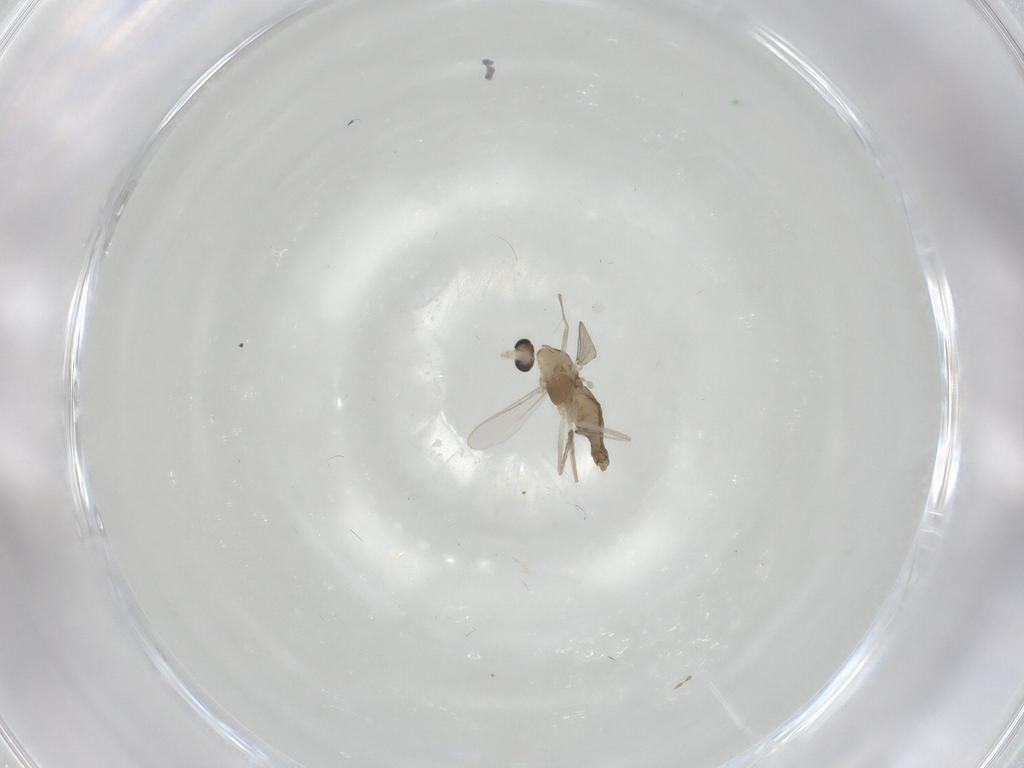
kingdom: Animalia
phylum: Arthropoda
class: Insecta
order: Diptera
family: Chironomidae
